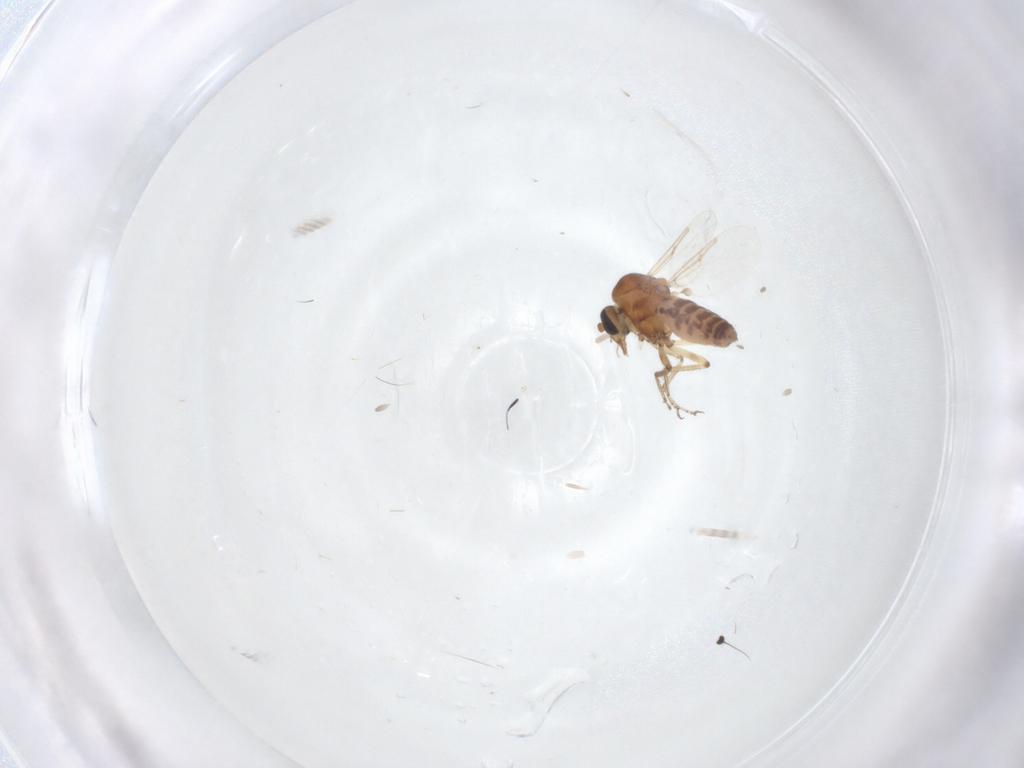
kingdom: Animalia
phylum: Arthropoda
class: Insecta
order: Diptera
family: Ceratopogonidae
